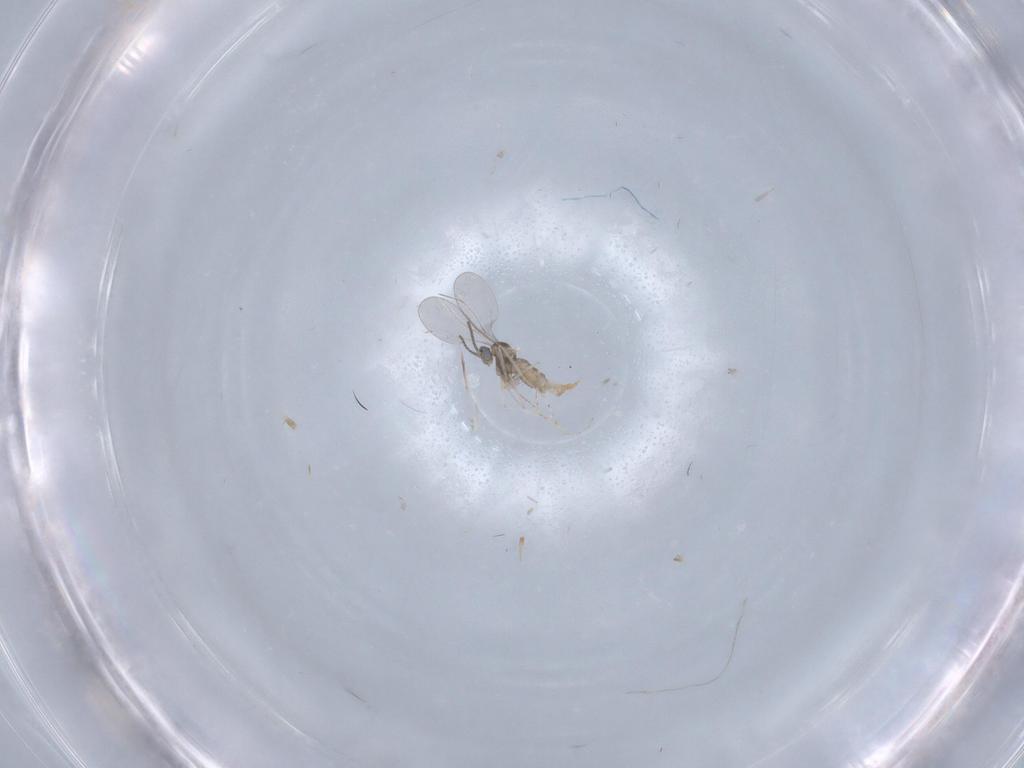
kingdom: Animalia
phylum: Arthropoda
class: Insecta
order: Diptera
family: Cecidomyiidae
